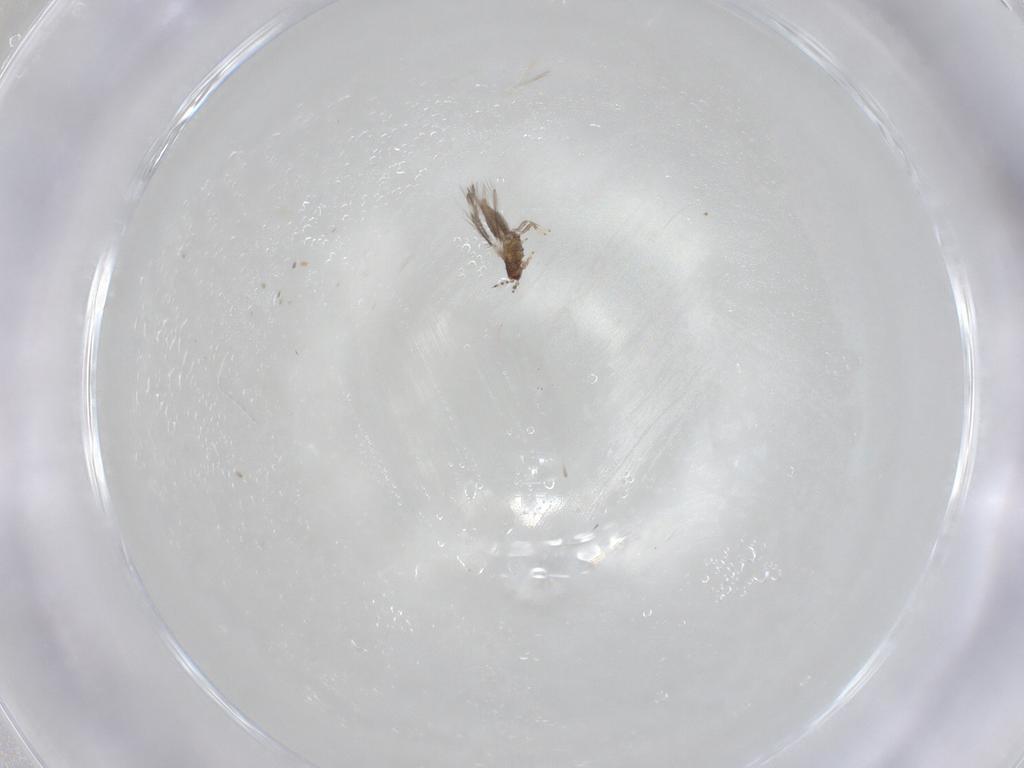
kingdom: Animalia
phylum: Arthropoda
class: Insecta
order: Thysanoptera
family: Thripidae
